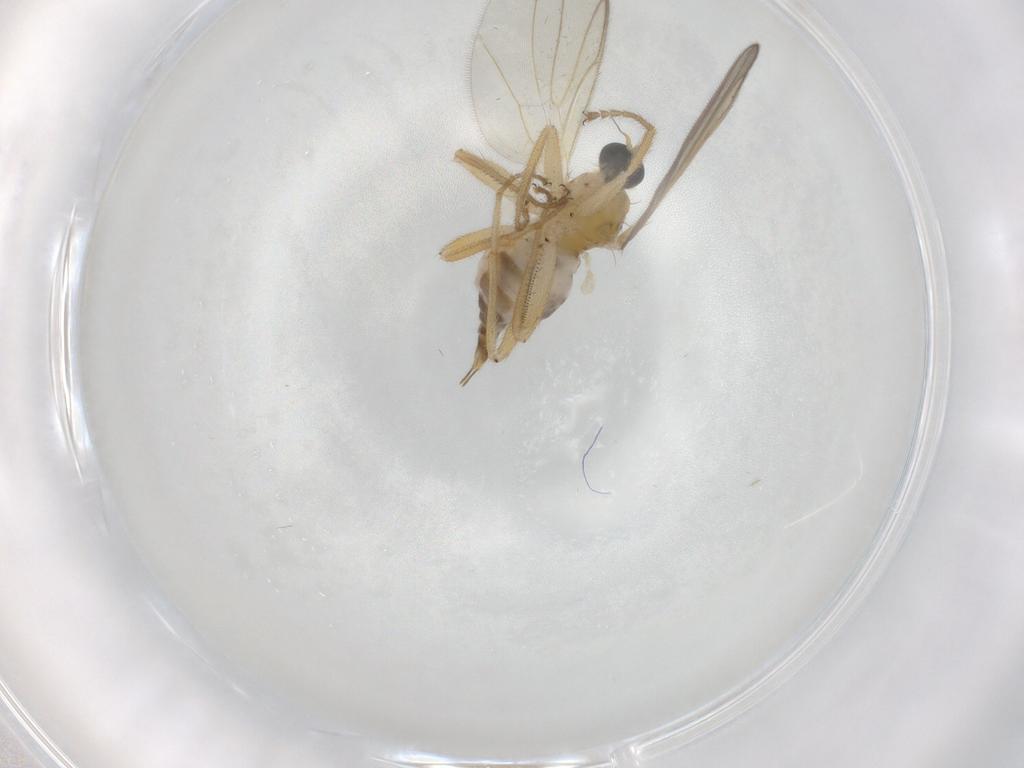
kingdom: Animalia
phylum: Arthropoda
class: Insecta
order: Diptera
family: Hybotidae
